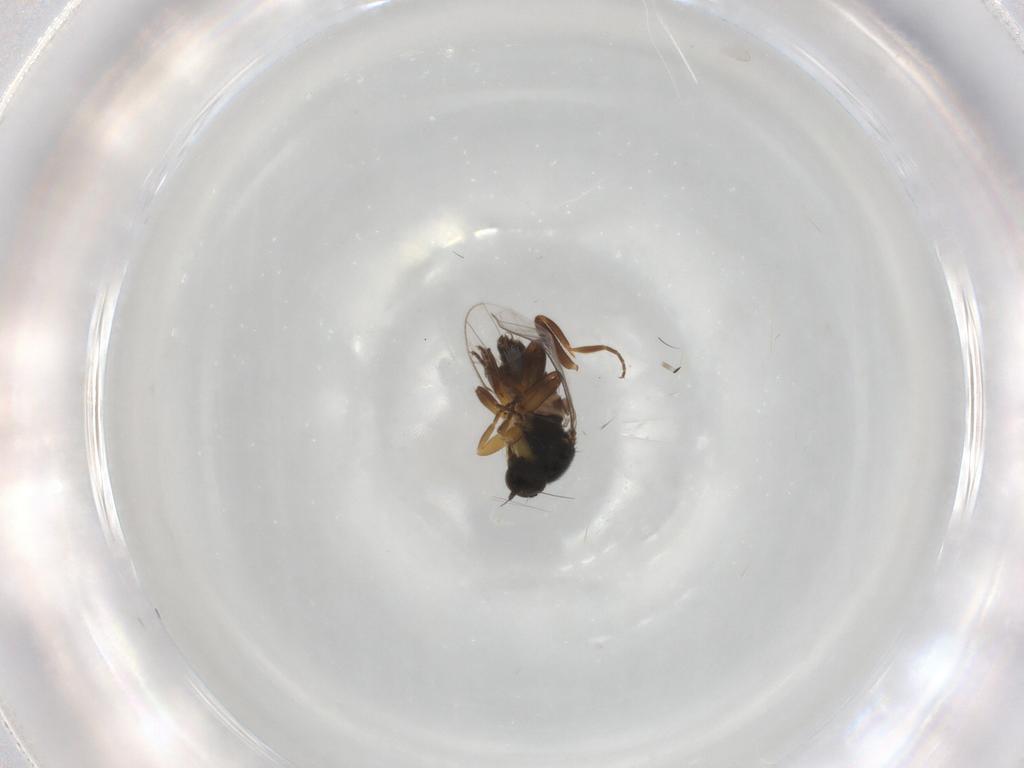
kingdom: Animalia
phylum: Arthropoda
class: Insecta
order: Diptera
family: Hybotidae
